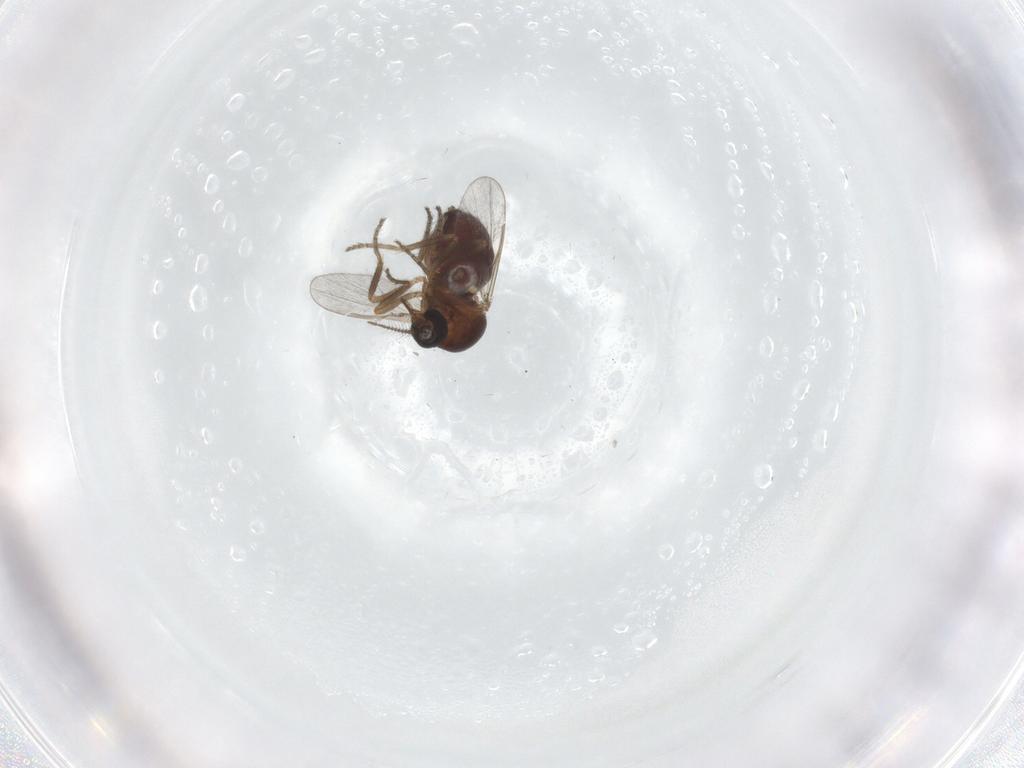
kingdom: Animalia
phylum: Arthropoda
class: Insecta
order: Diptera
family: Ceratopogonidae
